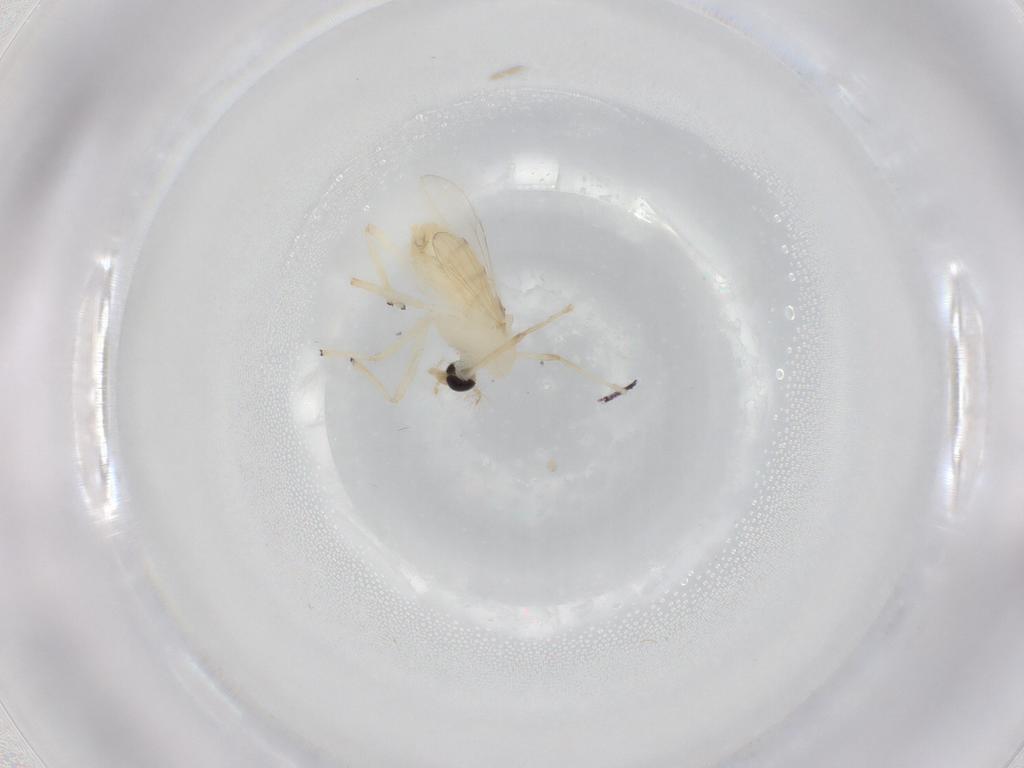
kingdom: Animalia
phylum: Arthropoda
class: Insecta
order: Diptera
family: Chironomidae
